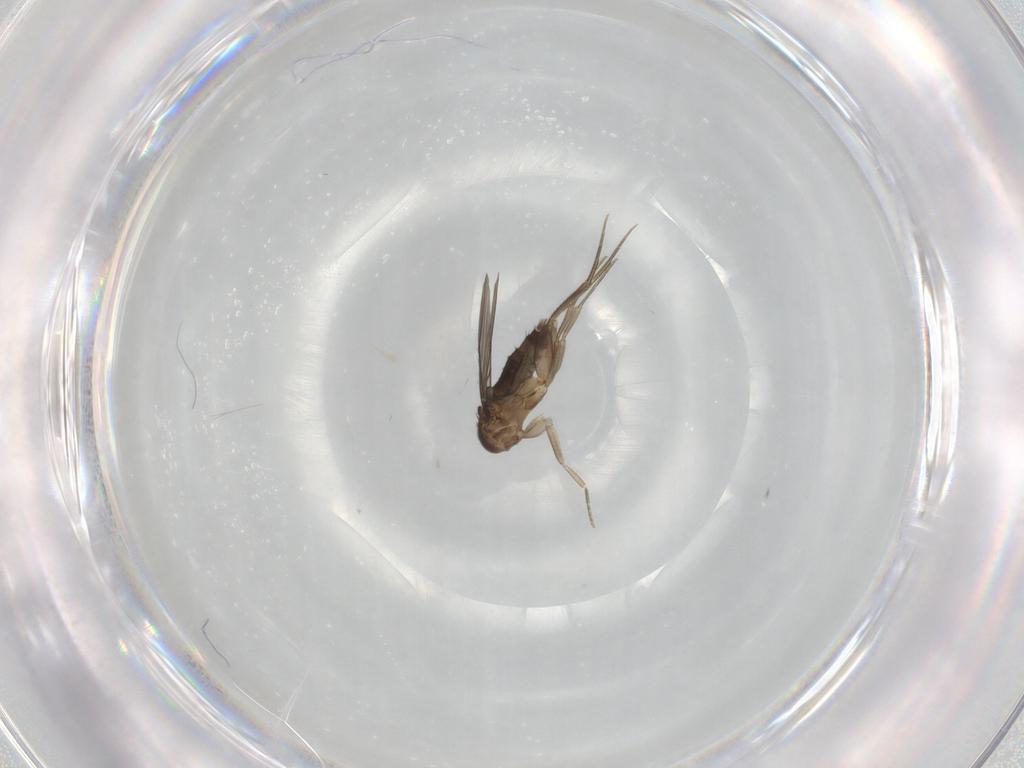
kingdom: Animalia
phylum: Arthropoda
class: Insecta
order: Diptera
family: Phoridae
